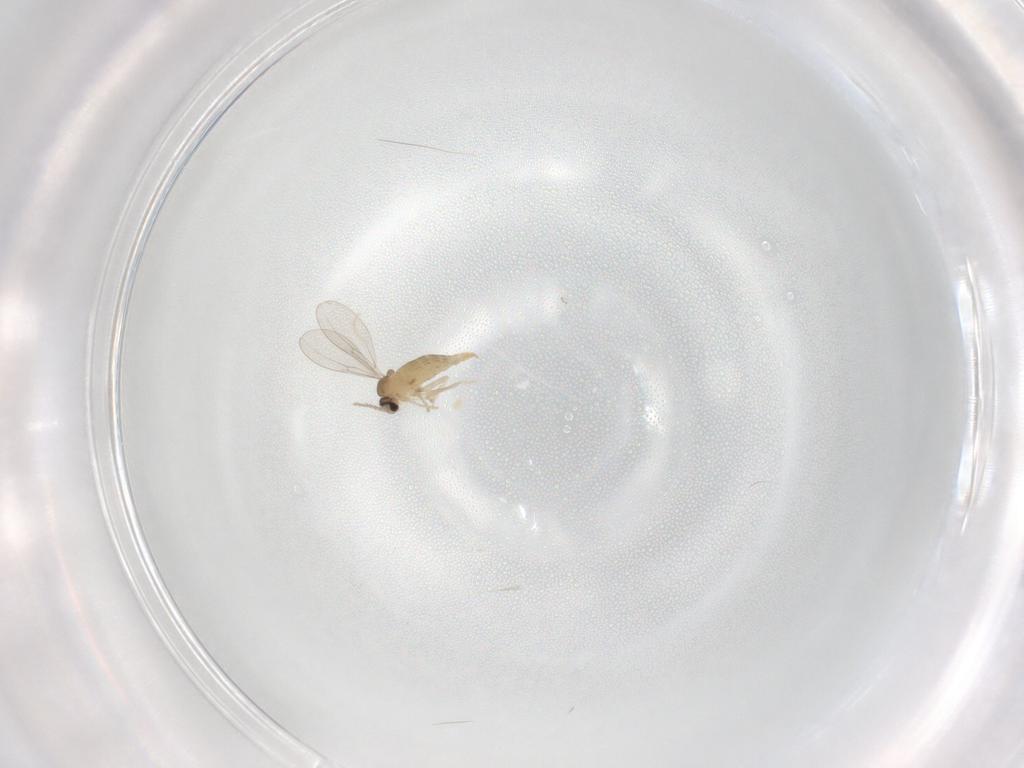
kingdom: Animalia
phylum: Arthropoda
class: Insecta
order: Diptera
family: Cecidomyiidae
